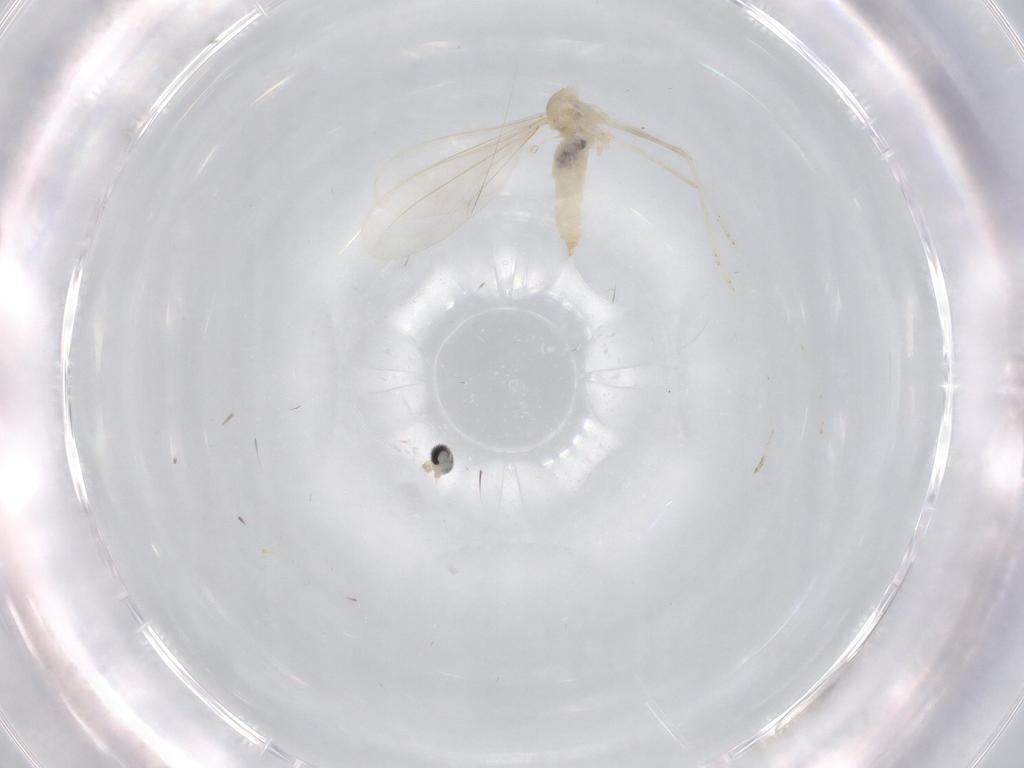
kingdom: Animalia
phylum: Arthropoda
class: Insecta
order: Diptera
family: Cecidomyiidae
